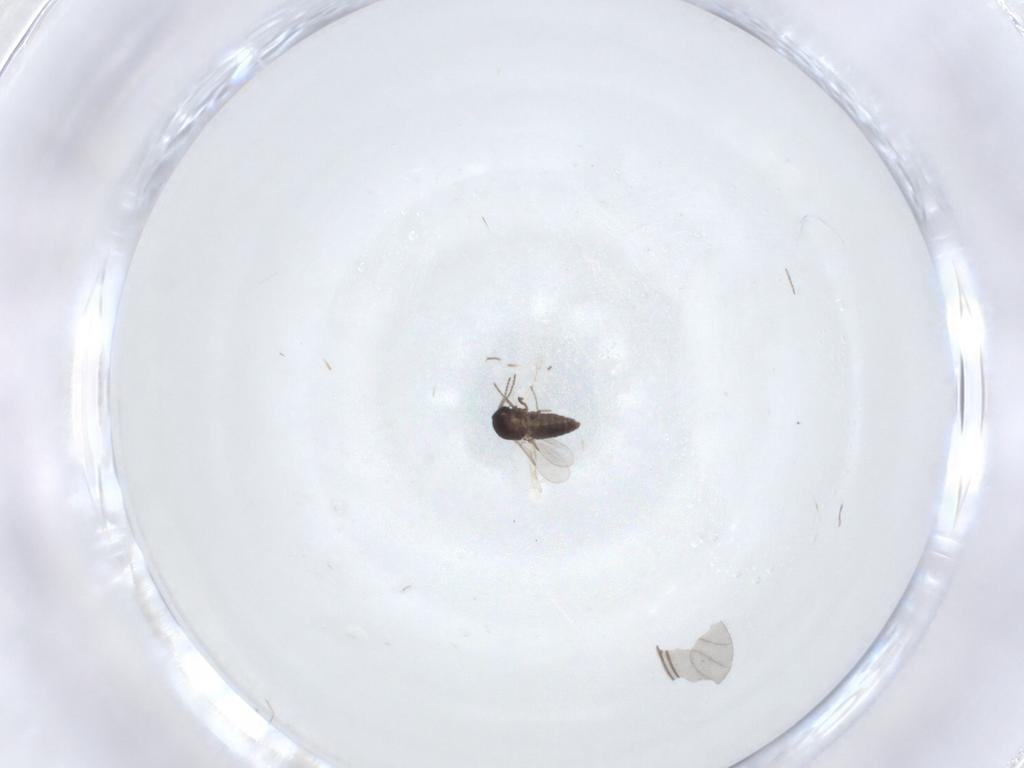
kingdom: Animalia
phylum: Arthropoda
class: Insecta
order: Diptera
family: Ceratopogonidae
